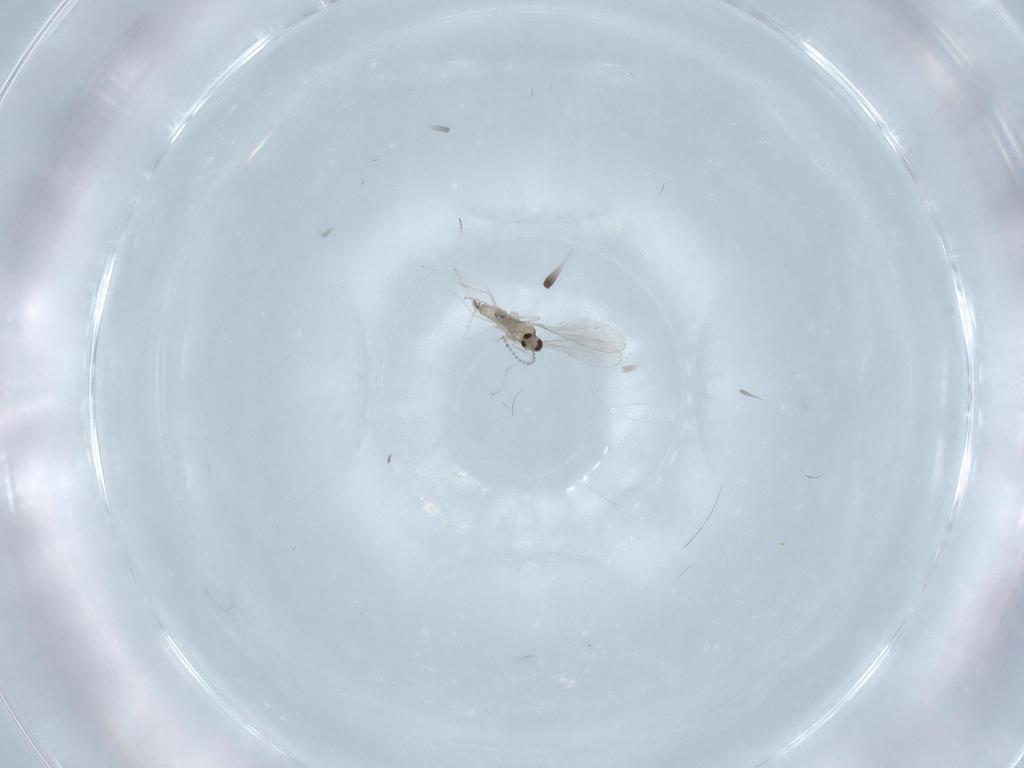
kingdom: Animalia
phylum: Arthropoda
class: Insecta
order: Diptera
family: Cecidomyiidae
